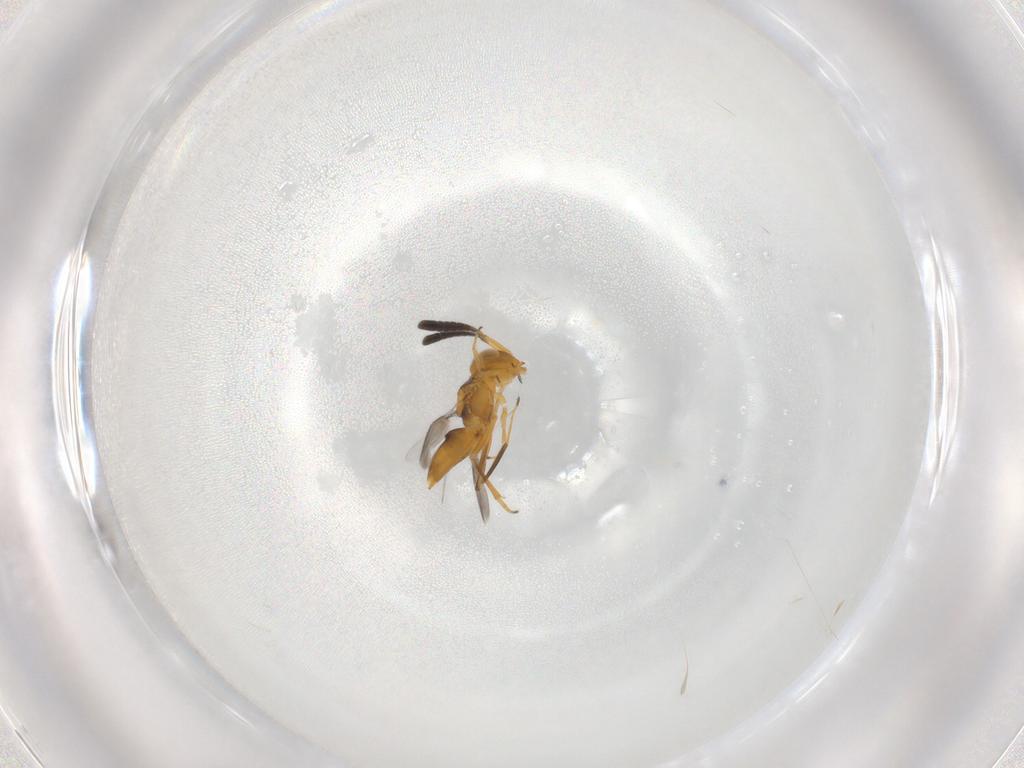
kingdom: Animalia
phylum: Arthropoda
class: Insecta
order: Hymenoptera
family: Encyrtidae
